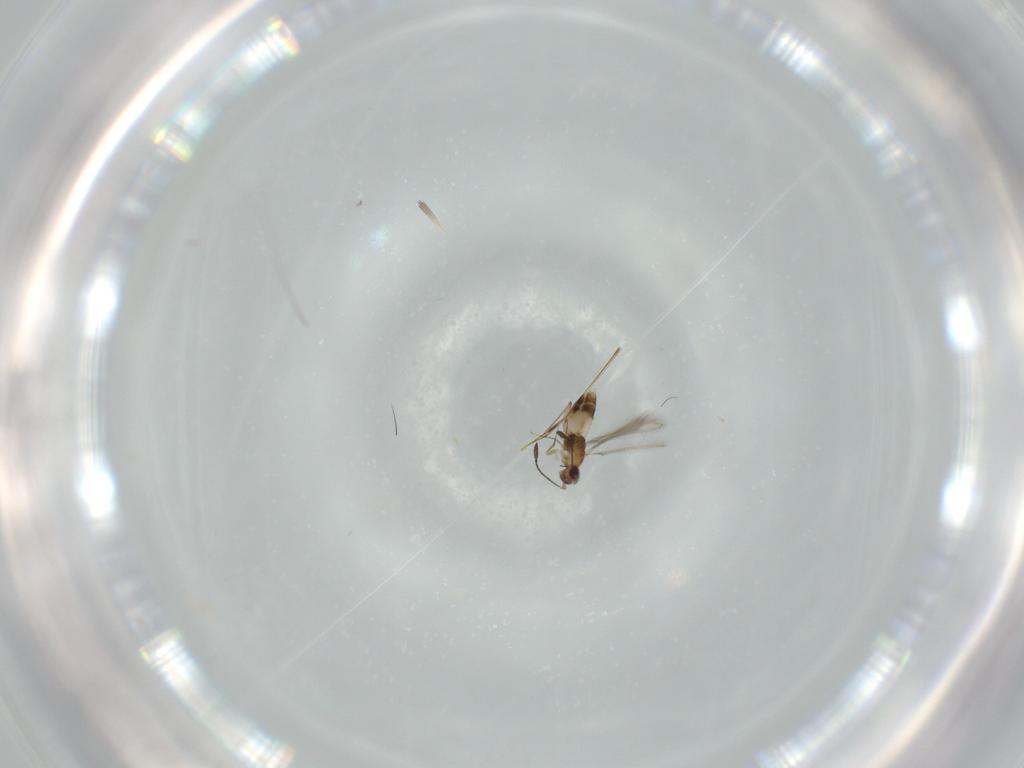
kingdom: Animalia
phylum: Arthropoda
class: Insecta
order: Hymenoptera
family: Mymaridae
